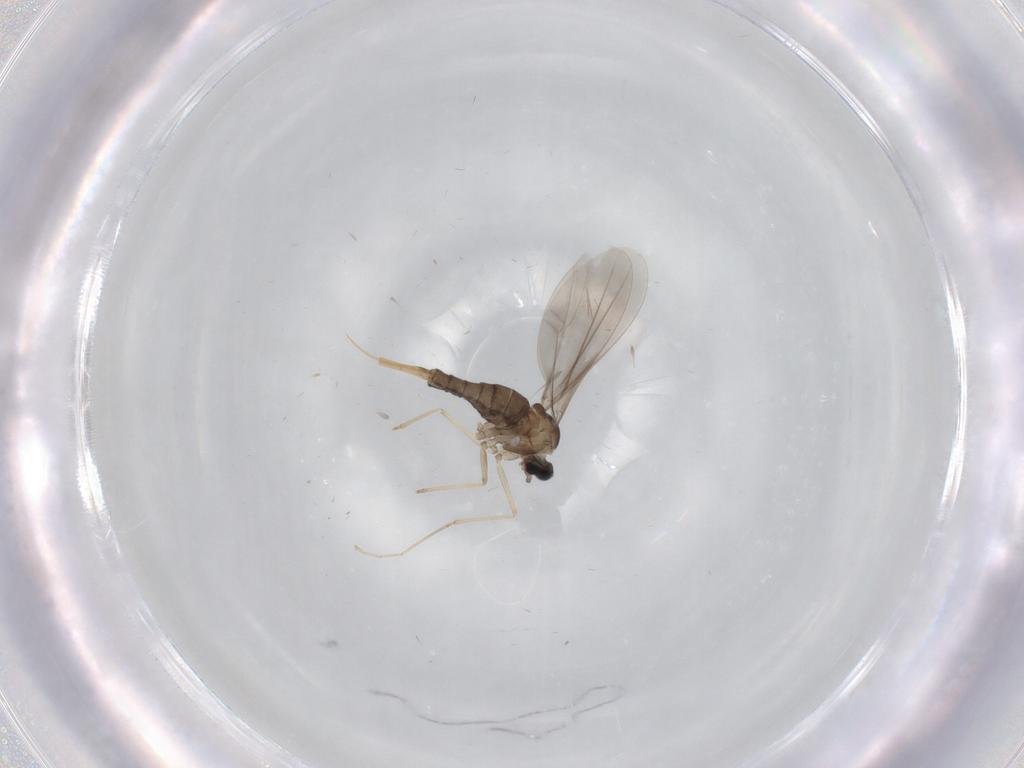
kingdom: Animalia
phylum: Arthropoda
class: Insecta
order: Diptera
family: Cecidomyiidae
